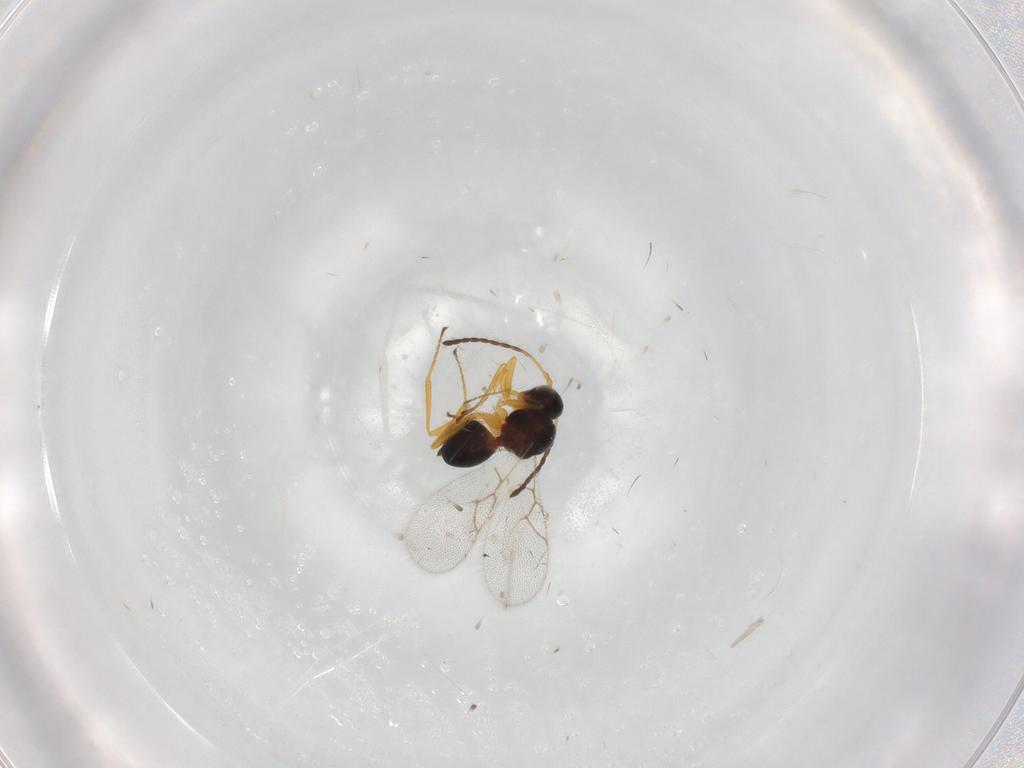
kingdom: Animalia
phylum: Arthropoda
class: Insecta
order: Hymenoptera
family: Figitidae
